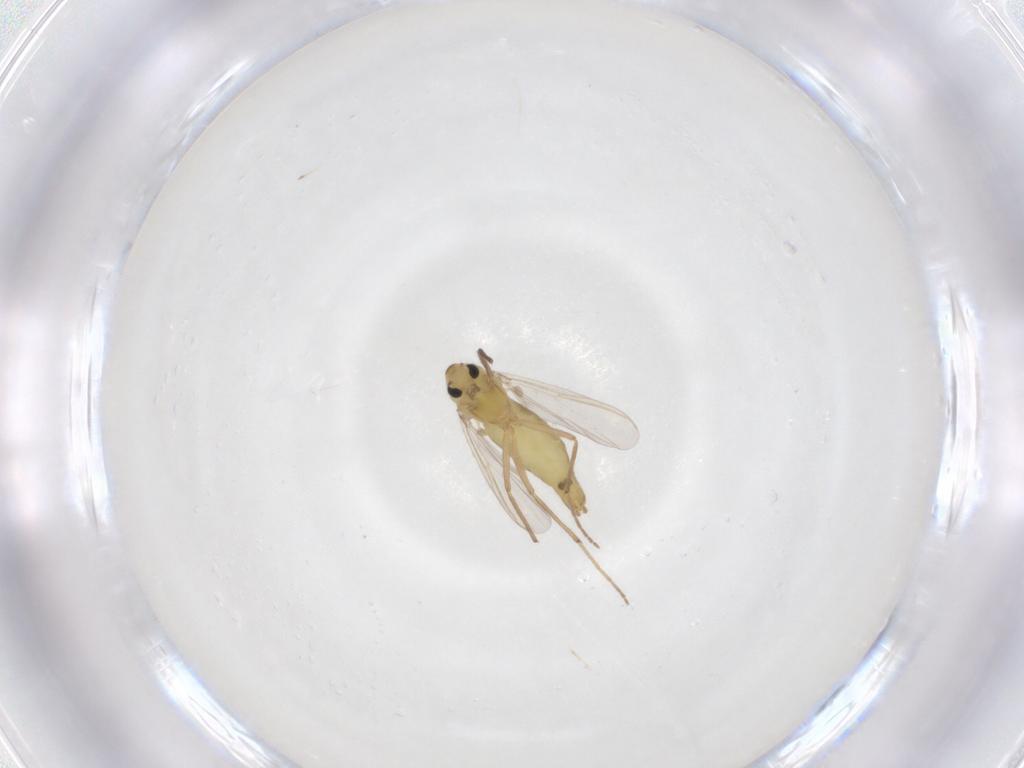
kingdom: Animalia
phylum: Arthropoda
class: Insecta
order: Diptera
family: Chironomidae
